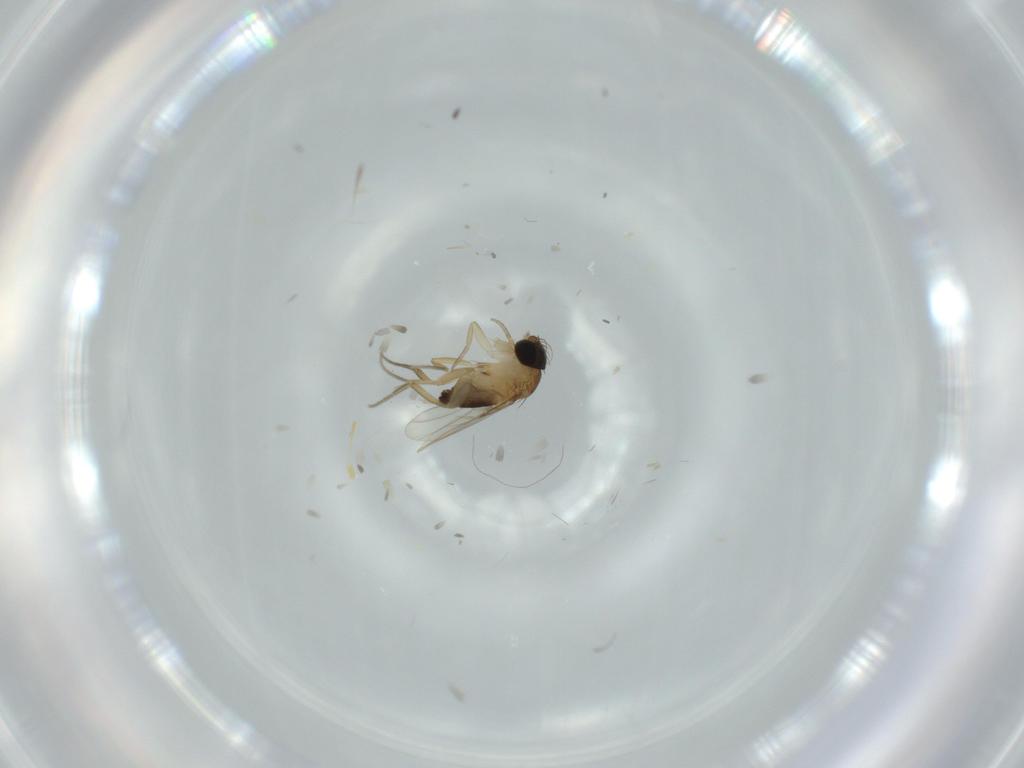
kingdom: Animalia
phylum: Arthropoda
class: Insecta
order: Diptera
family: Phoridae
